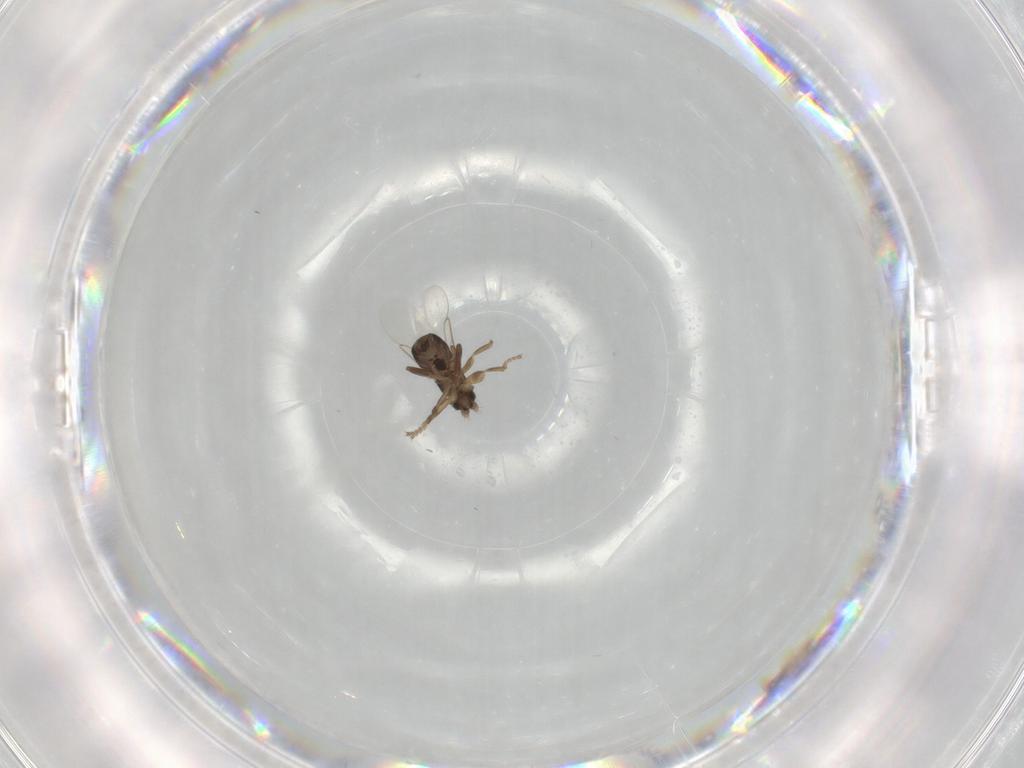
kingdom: Animalia
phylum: Arthropoda
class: Insecta
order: Diptera
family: Phoridae
